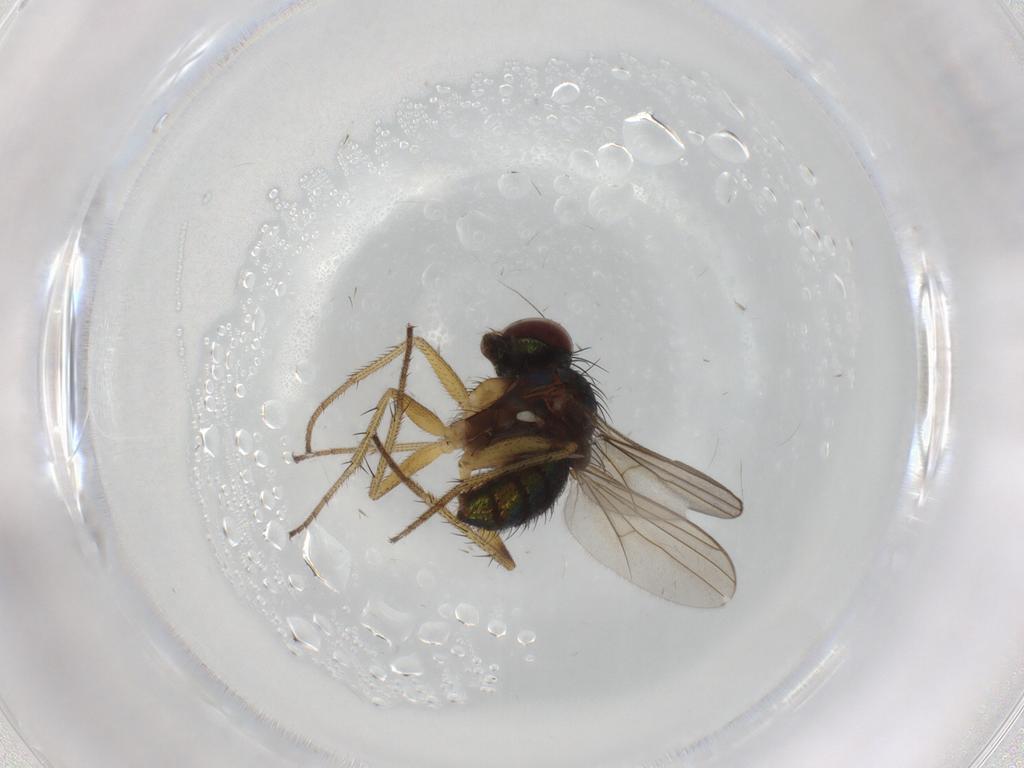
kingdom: Animalia
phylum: Arthropoda
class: Insecta
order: Diptera
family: Dolichopodidae
